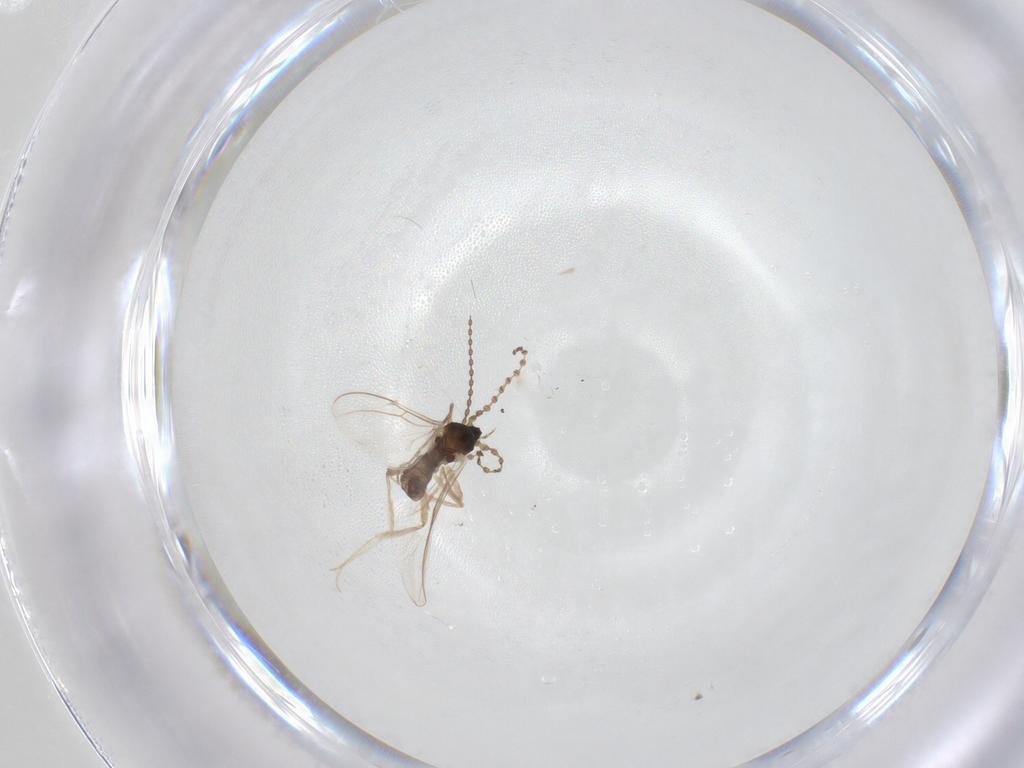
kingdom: Animalia
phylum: Arthropoda
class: Insecta
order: Diptera
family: Cecidomyiidae
